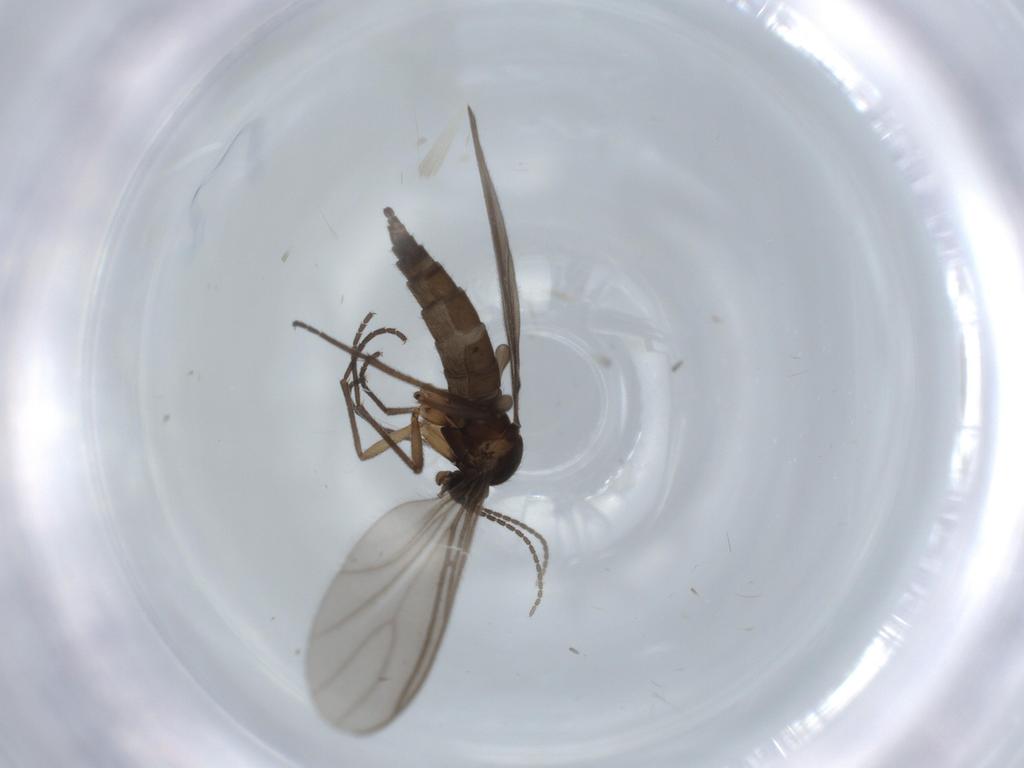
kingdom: Animalia
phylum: Arthropoda
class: Insecta
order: Diptera
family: Sciaridae
